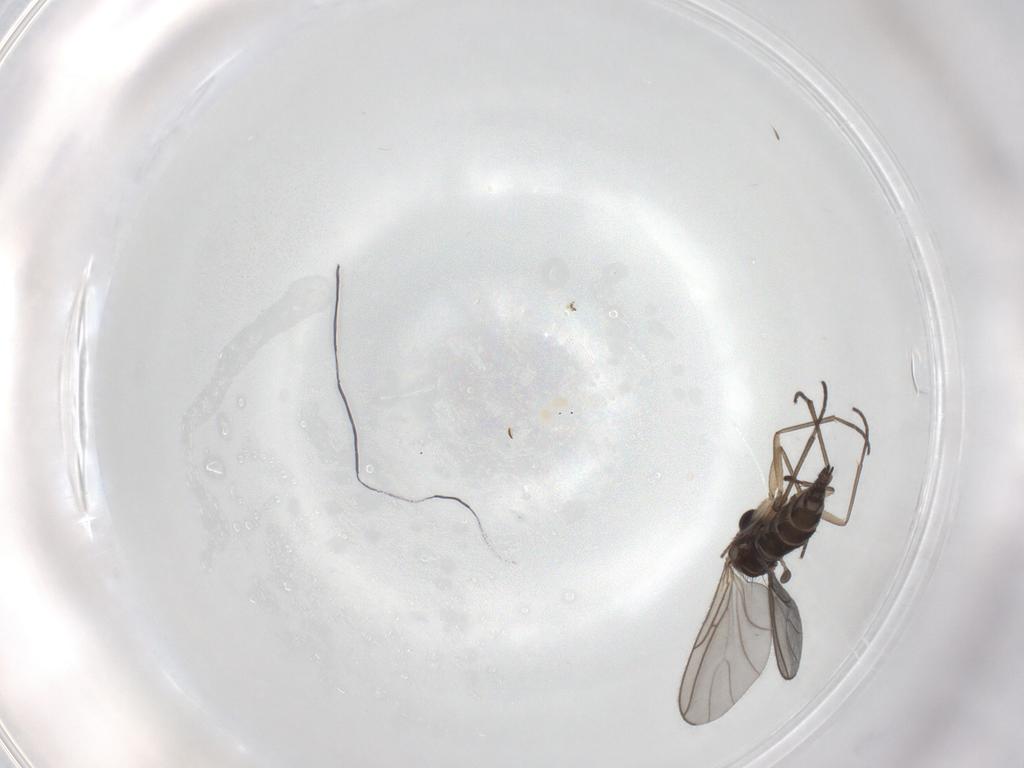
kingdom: Animalia
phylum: Arthropoda
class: Insecta
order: Diptera
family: Hybotidae
